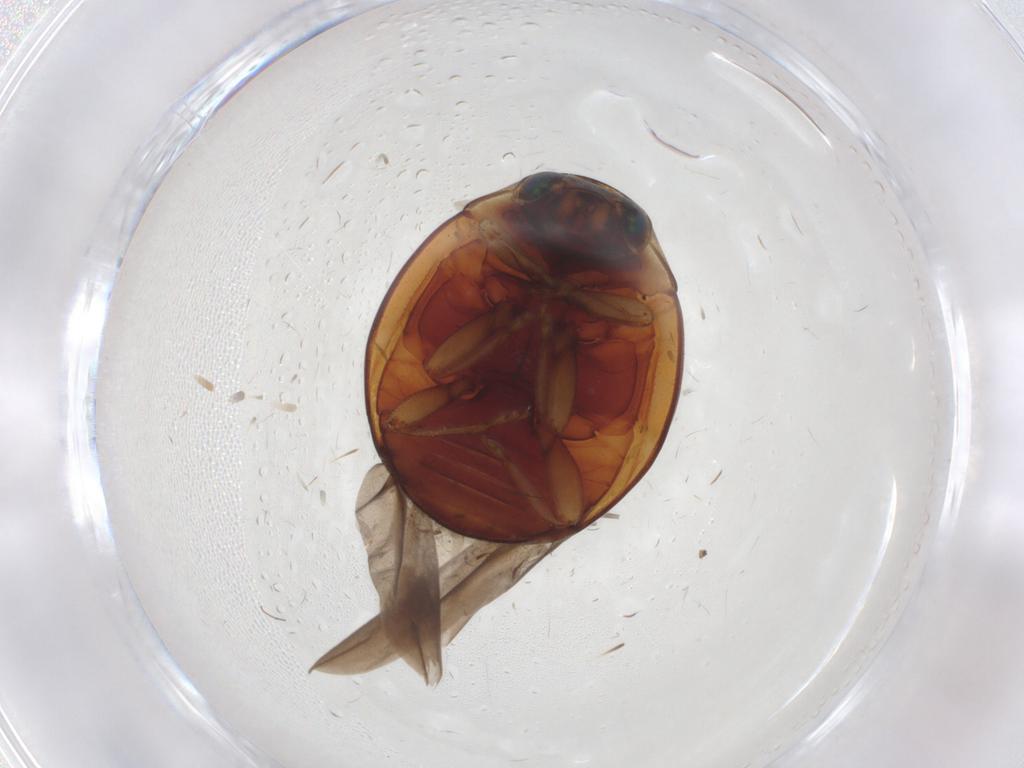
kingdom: Animalia
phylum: Arthropoda
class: Insecta
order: Coleoptera
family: Coccinellidae
